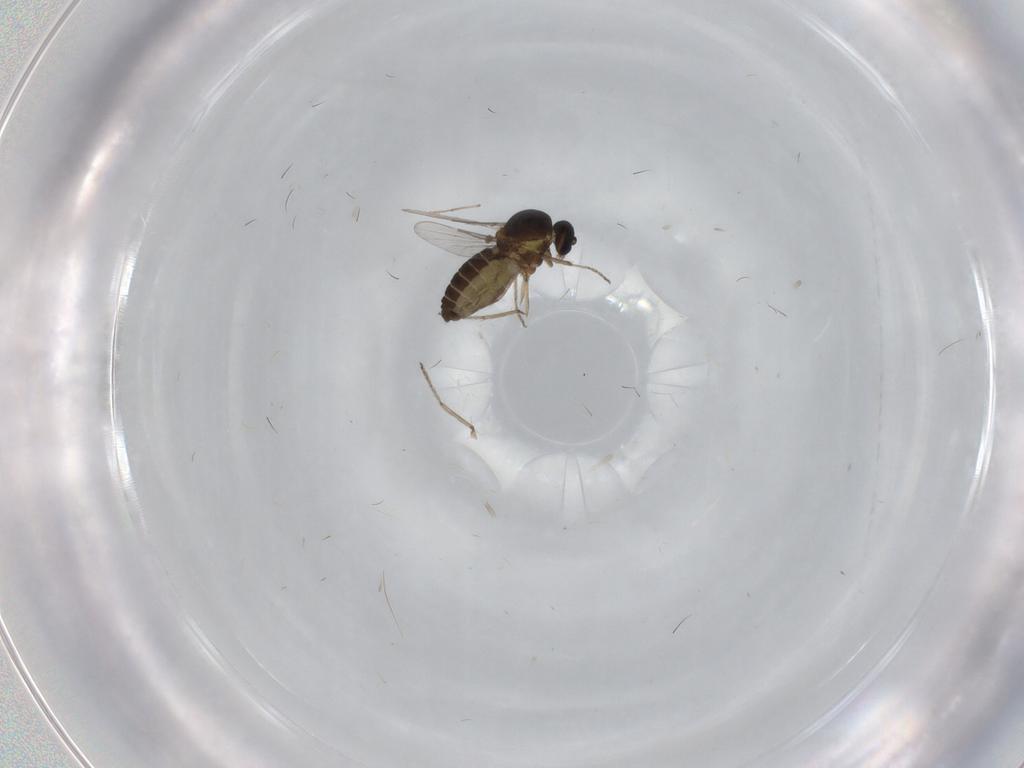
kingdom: Animalia
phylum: Arthropoda
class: Insecta
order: Diptera
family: Ceratopogonidae
